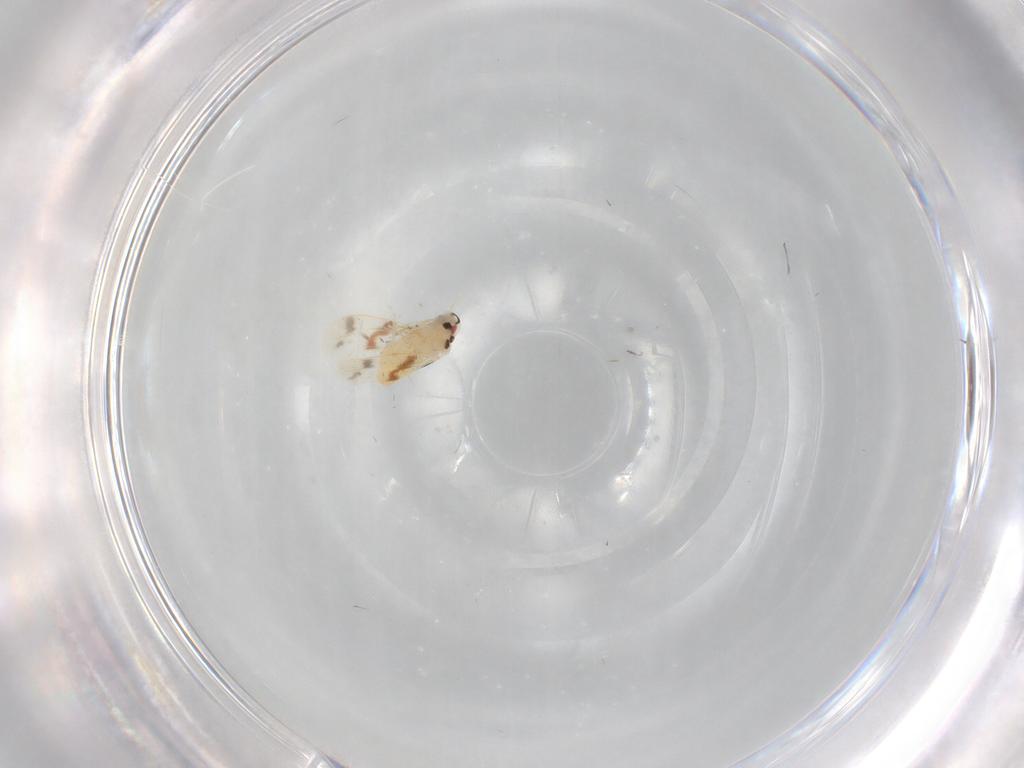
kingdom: Animalia
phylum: Arthropoda
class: Insecta
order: Hemiptera
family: Aleyrodidae
